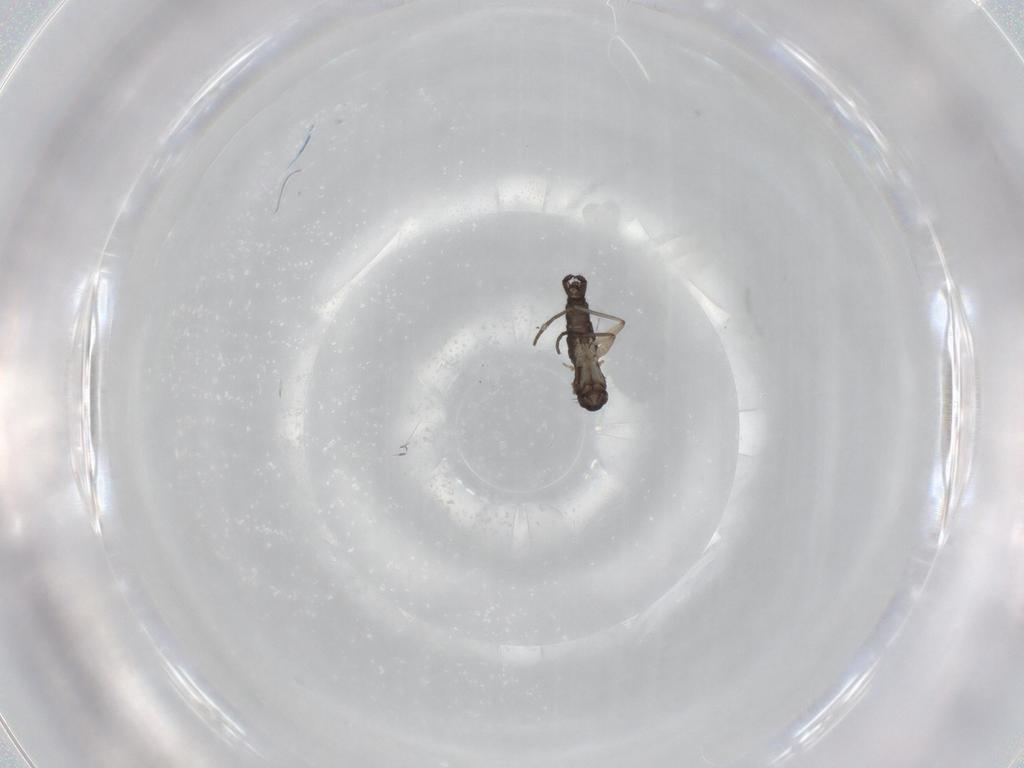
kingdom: Animalia
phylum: Arthropoda
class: Insecta
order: Diptera
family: Sciaridae
